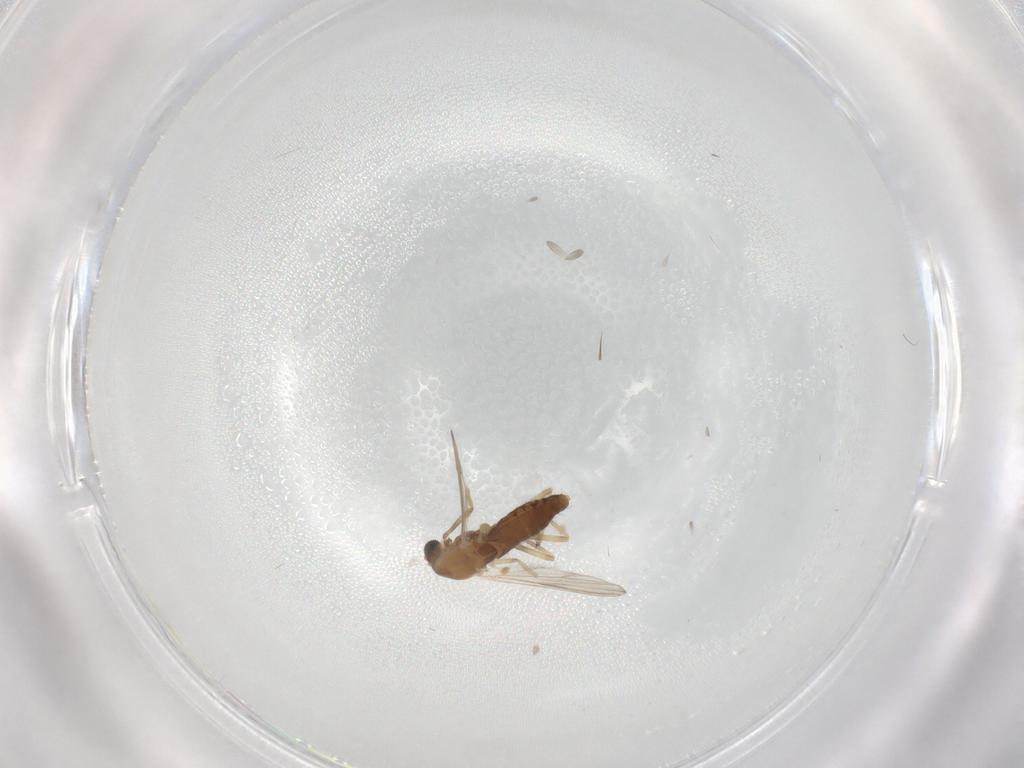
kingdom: Animalia
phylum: Arthropoda
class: Insecta
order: Diptera
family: Chironomidae
